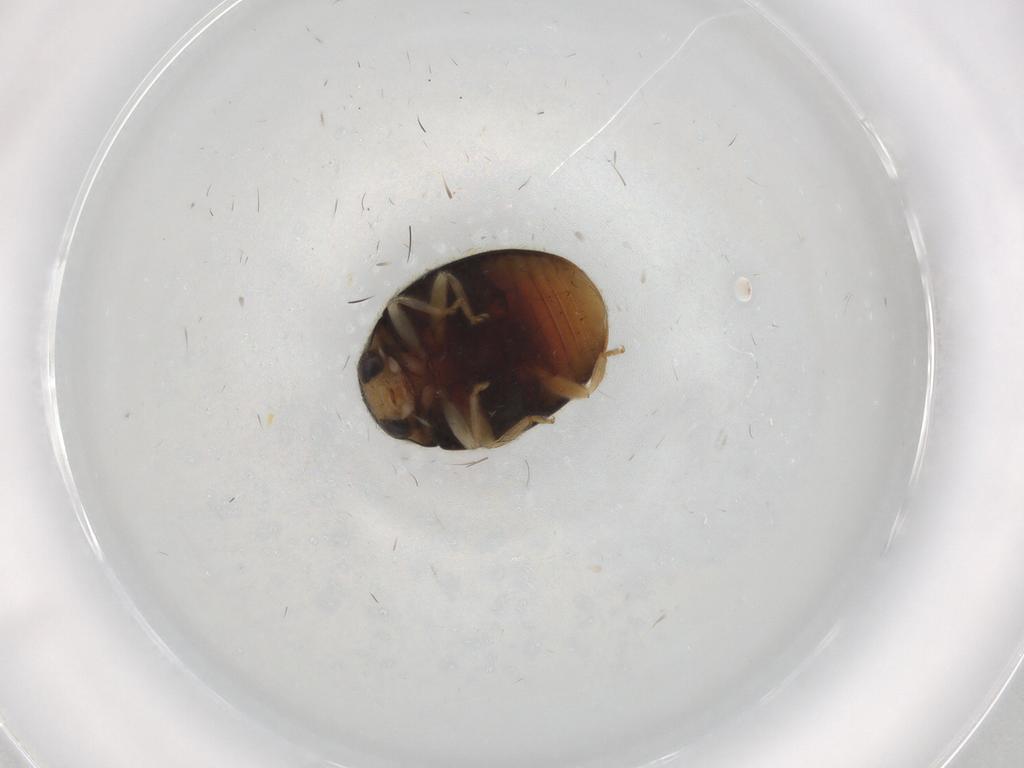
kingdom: Animalia
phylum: Arthropoda
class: Insecta
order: Coleoptera
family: Coccinellidae
